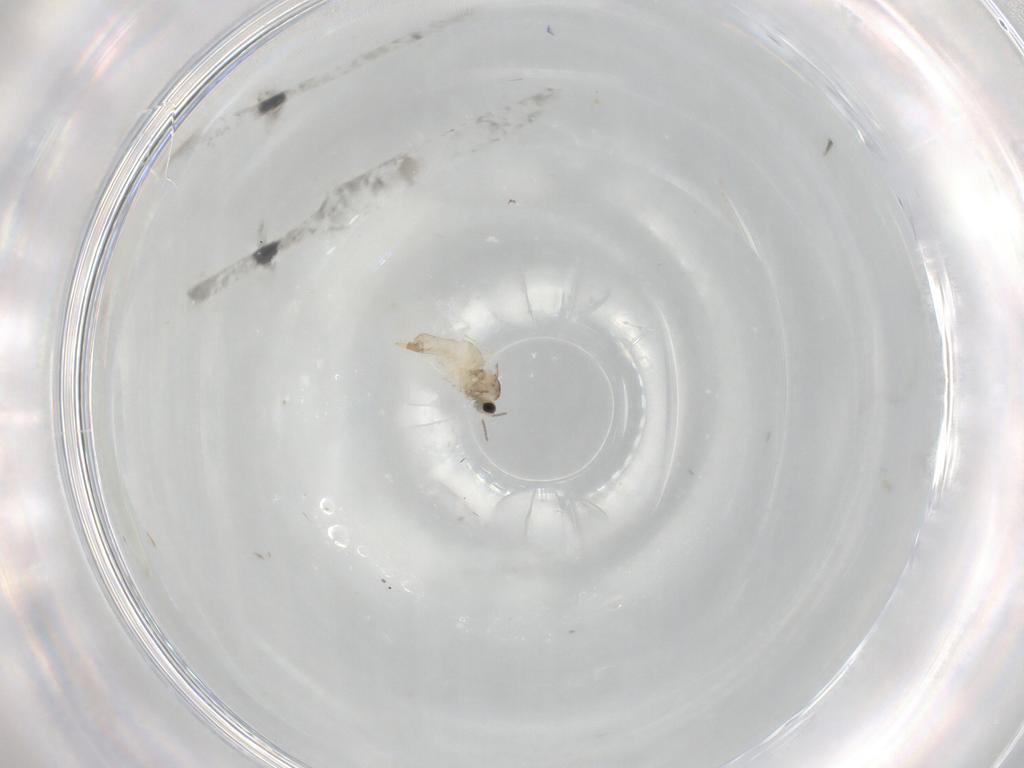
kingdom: Animalia
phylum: Arthropoda
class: Insecta
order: Diptera
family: Cecidomyiidae
